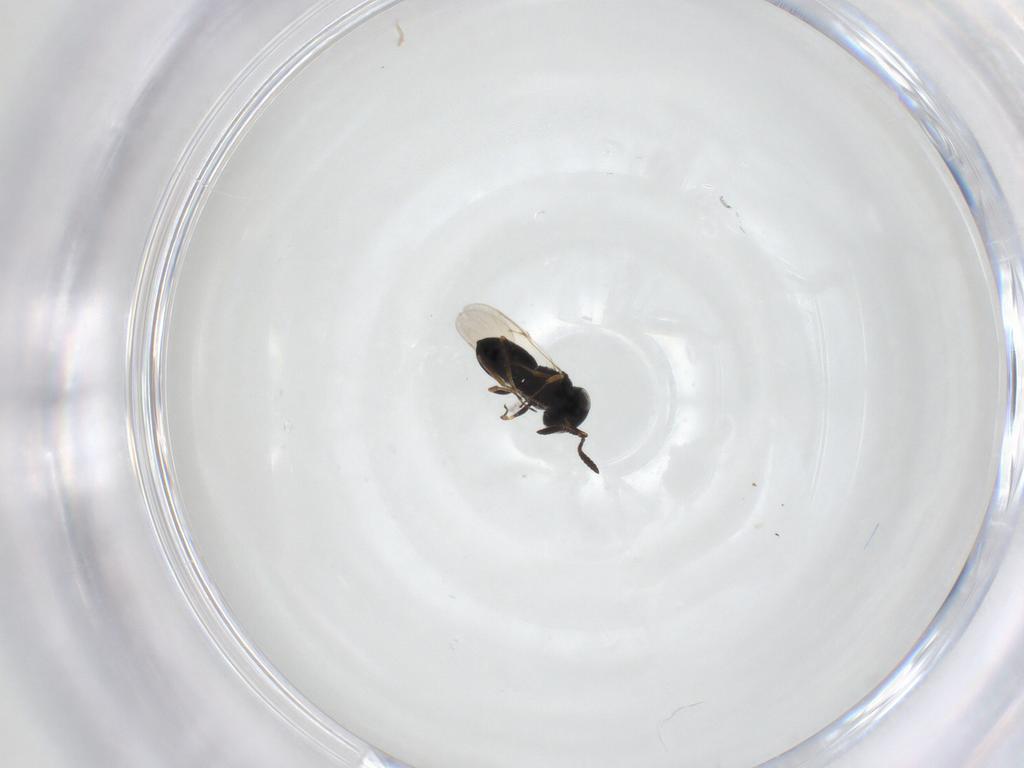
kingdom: Animalia
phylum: Arthropoda
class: Insecta
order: Hymenoptera
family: Scelionidae
